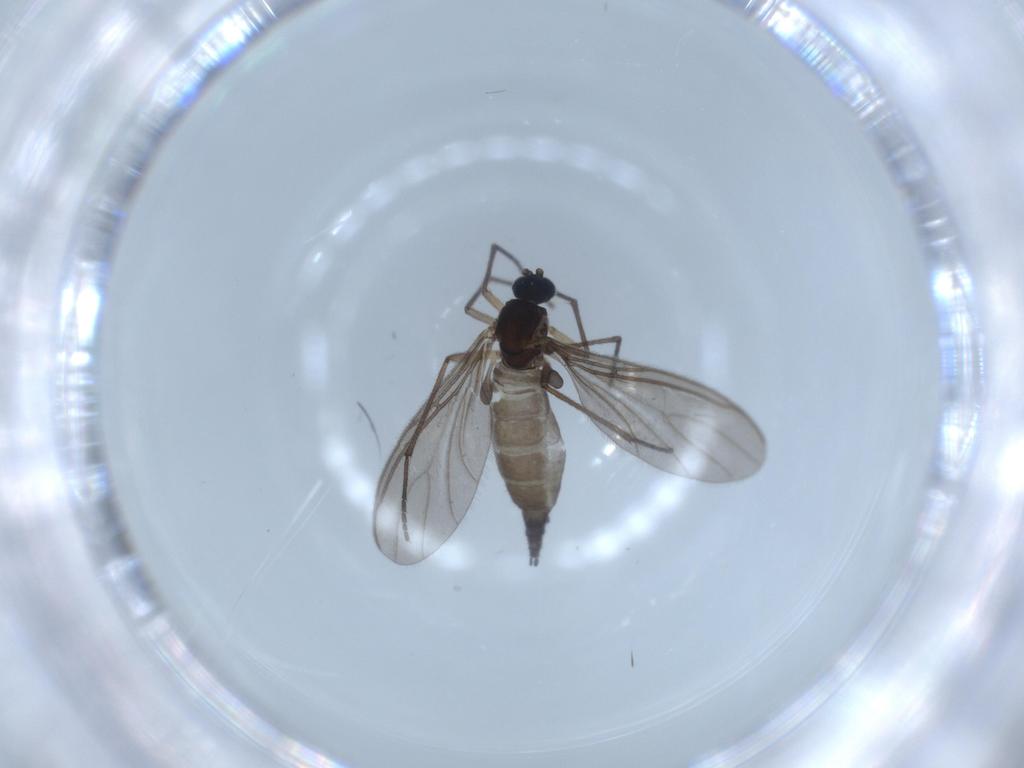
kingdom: Animalia
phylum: Arthropoda
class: Insecta
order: Diptera
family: Sciaridae
